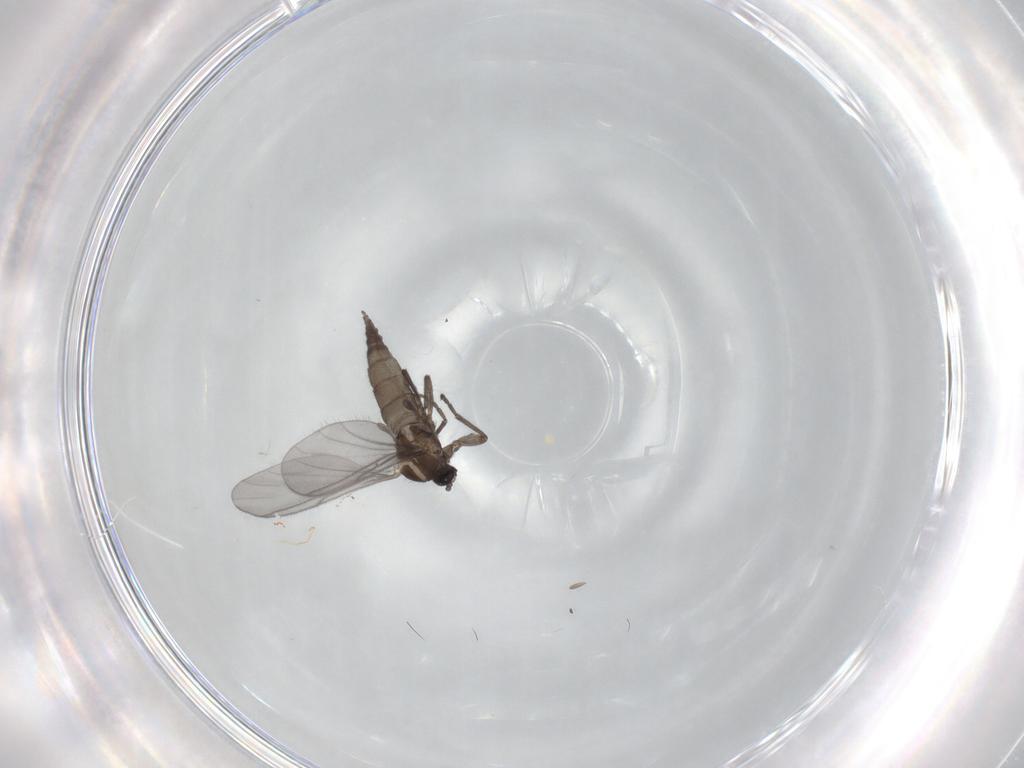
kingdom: Animalia
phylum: Arthropoda
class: Insecta
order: Diptera
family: Sciaridae
